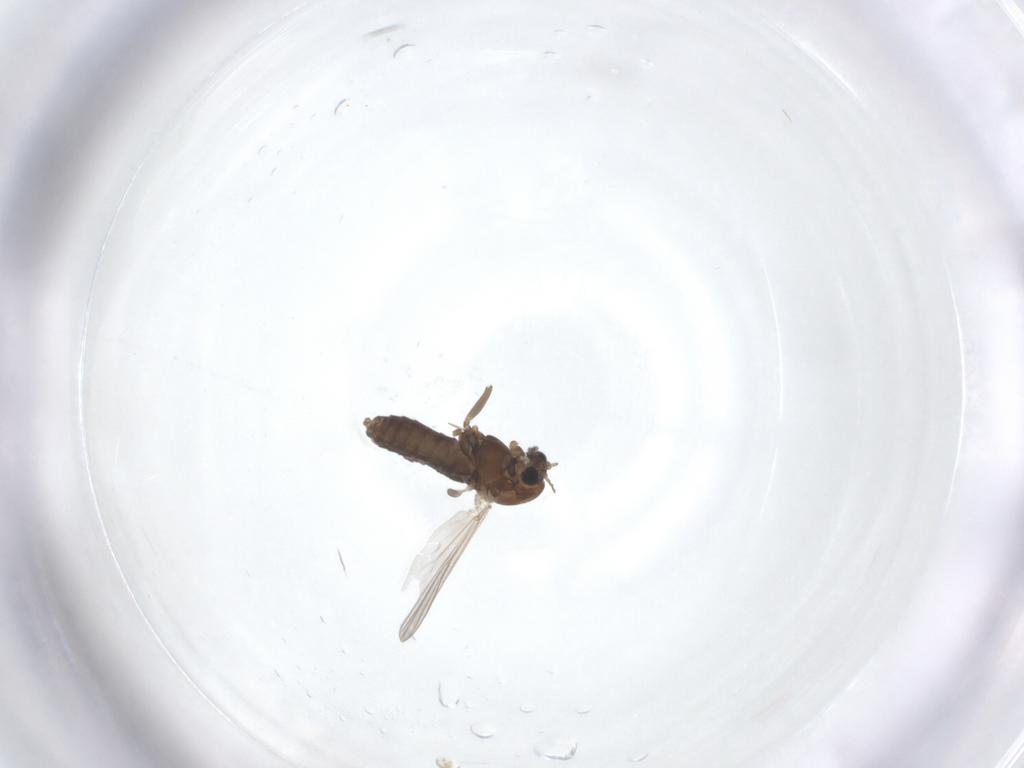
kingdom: Animalia
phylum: Arthropoda
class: Insecta
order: Diptera
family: Chironomidae
